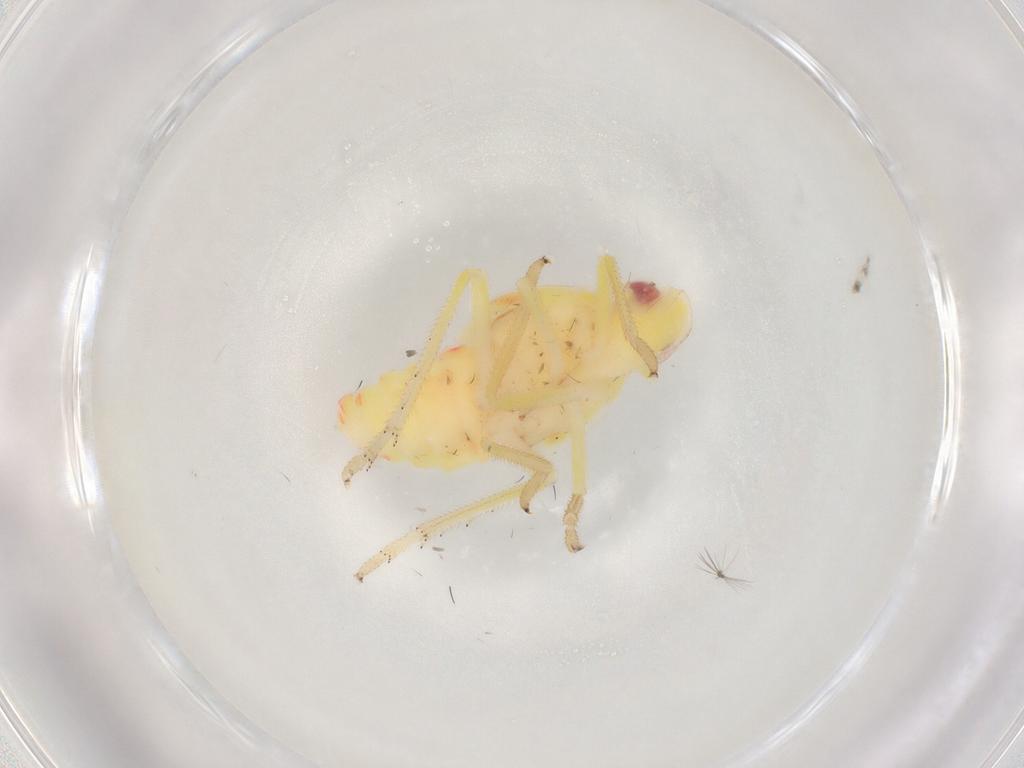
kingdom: Animalia
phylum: Arthropoda
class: Insecta
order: Hemiptera
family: Tropiduchidae
